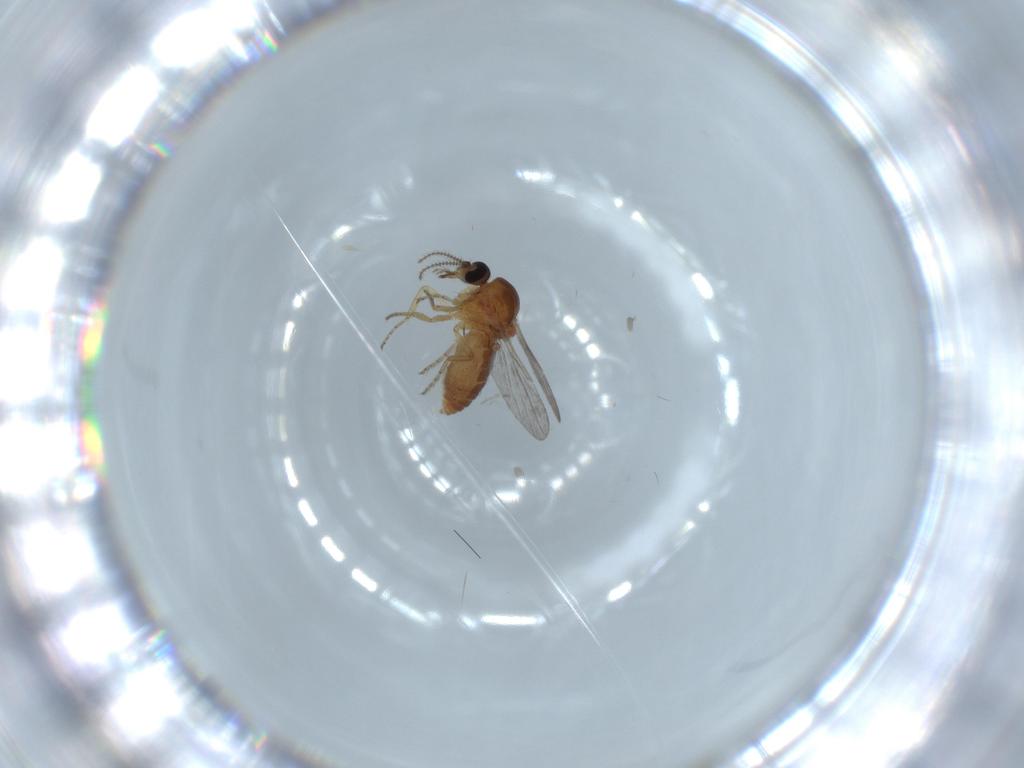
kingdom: Animalia
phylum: Arthropoda
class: Insecta
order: Diptera
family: Ceratopogonidae
